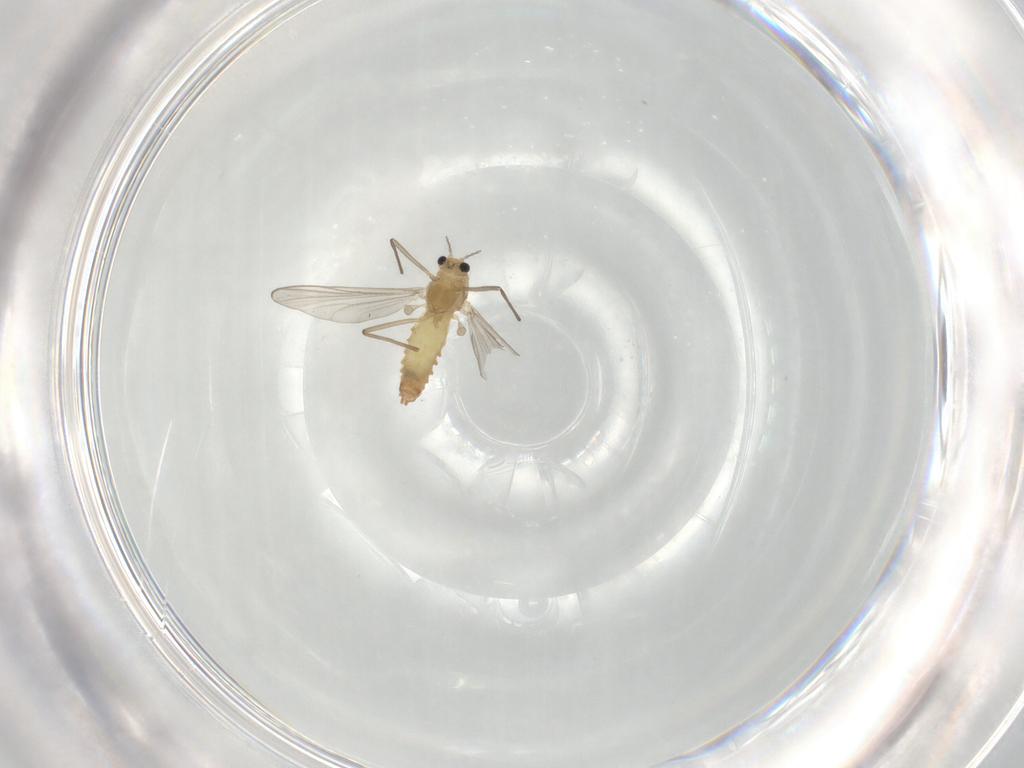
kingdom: Animalia
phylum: Arthropoda
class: Insecta
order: Diptera
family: Chironomidae
